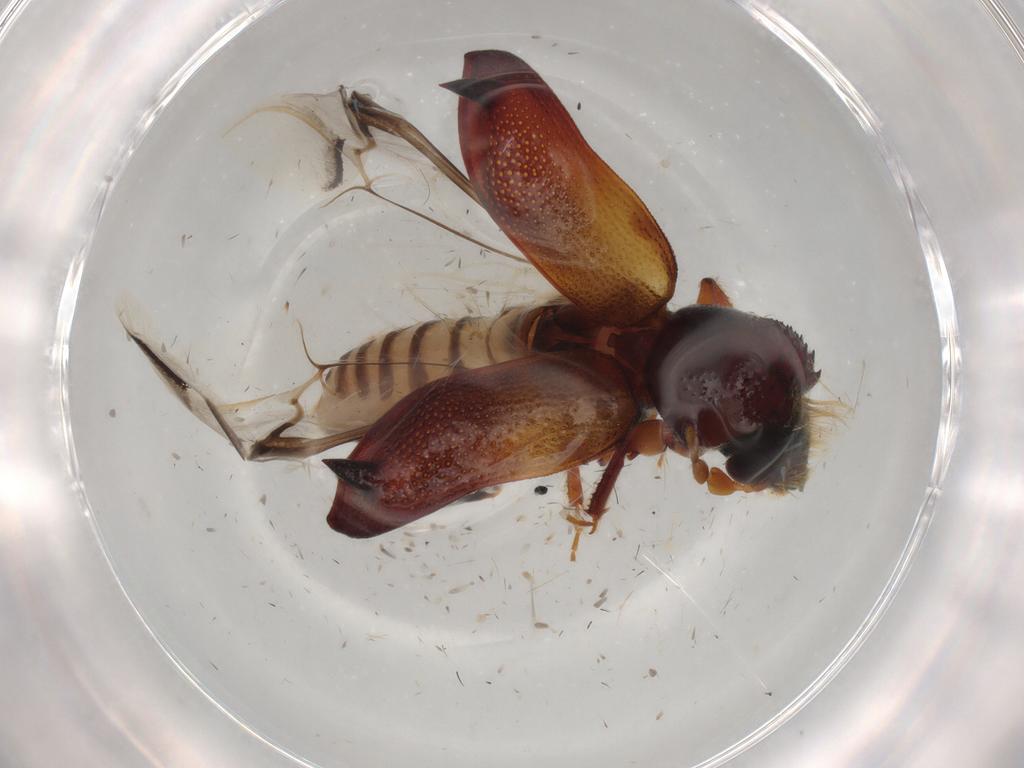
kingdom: Animalia
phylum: Arthropoda
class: Insecta
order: Coleoptera
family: Bostrichidae
